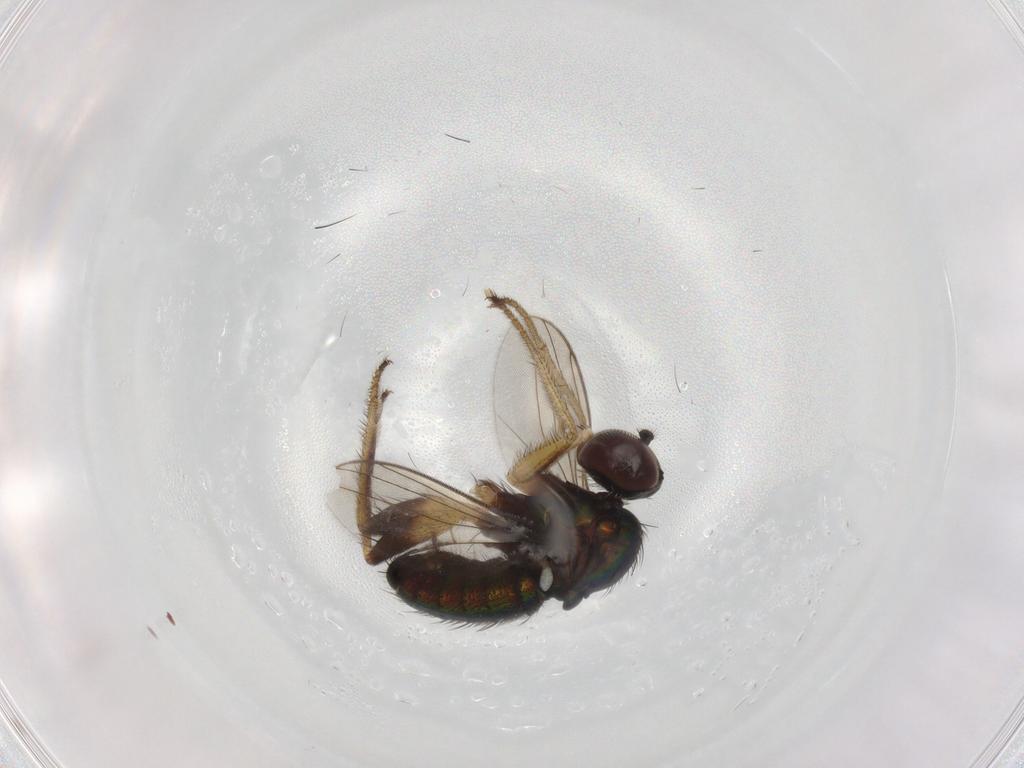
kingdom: Animalia
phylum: Arthropoda
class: Insecta
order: Diptera
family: Dolichopodidae
